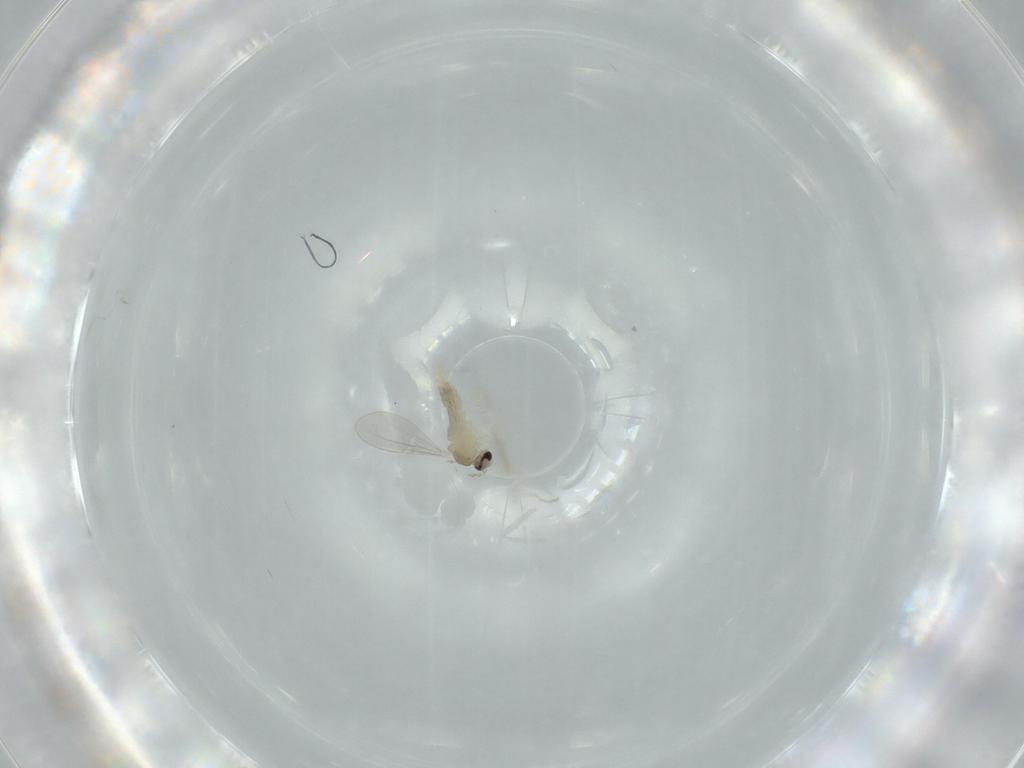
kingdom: Animalia
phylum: Arthropoda
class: Insecta
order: Diptera
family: Cecidomyiidae
